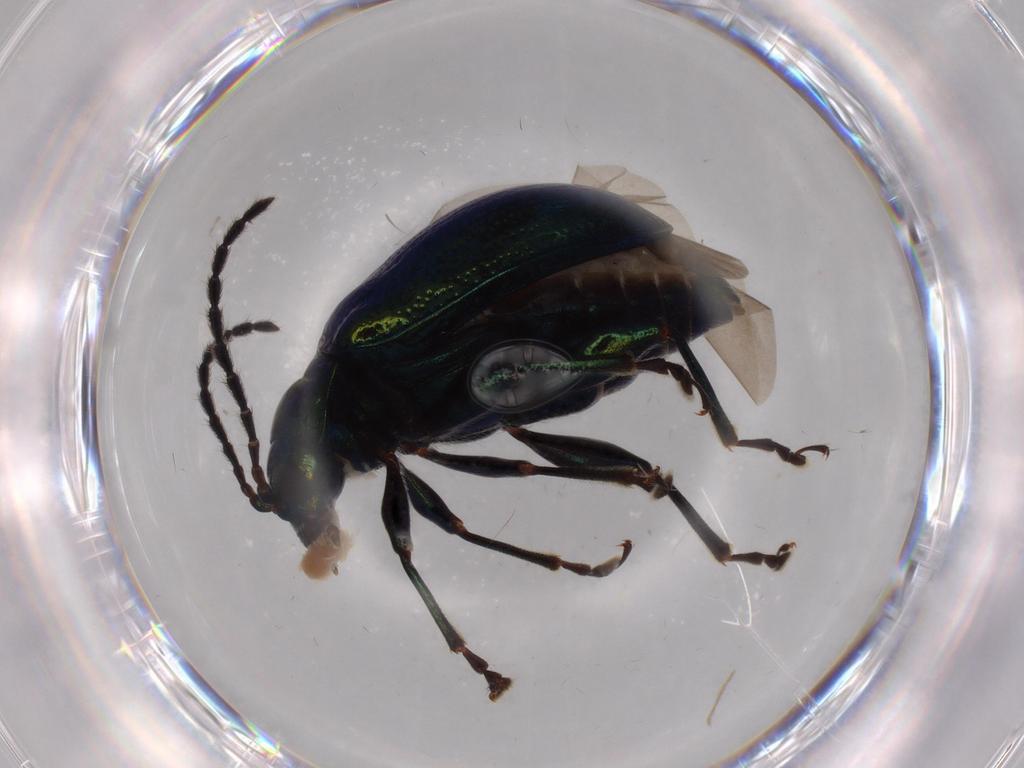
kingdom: Animalia
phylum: Arthropoda
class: Insecta
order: Coleoptera
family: Chrysomelidae
